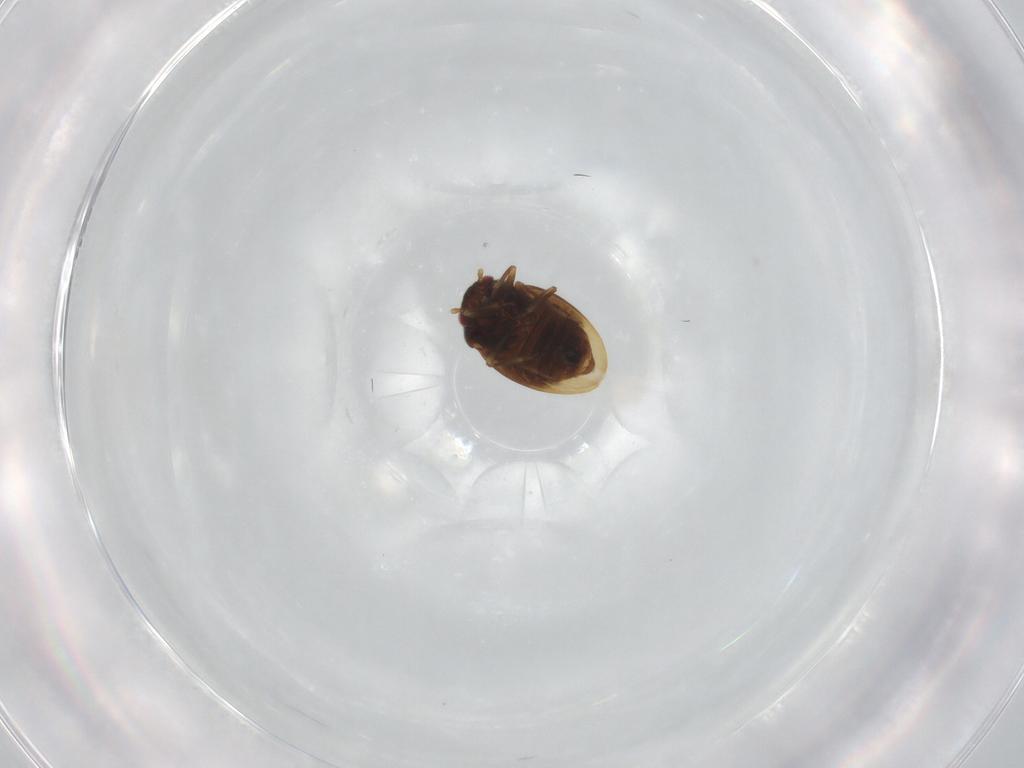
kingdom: Animalia
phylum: Arthropoda
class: Insecta
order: Hemiptera
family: Schizopteridae
